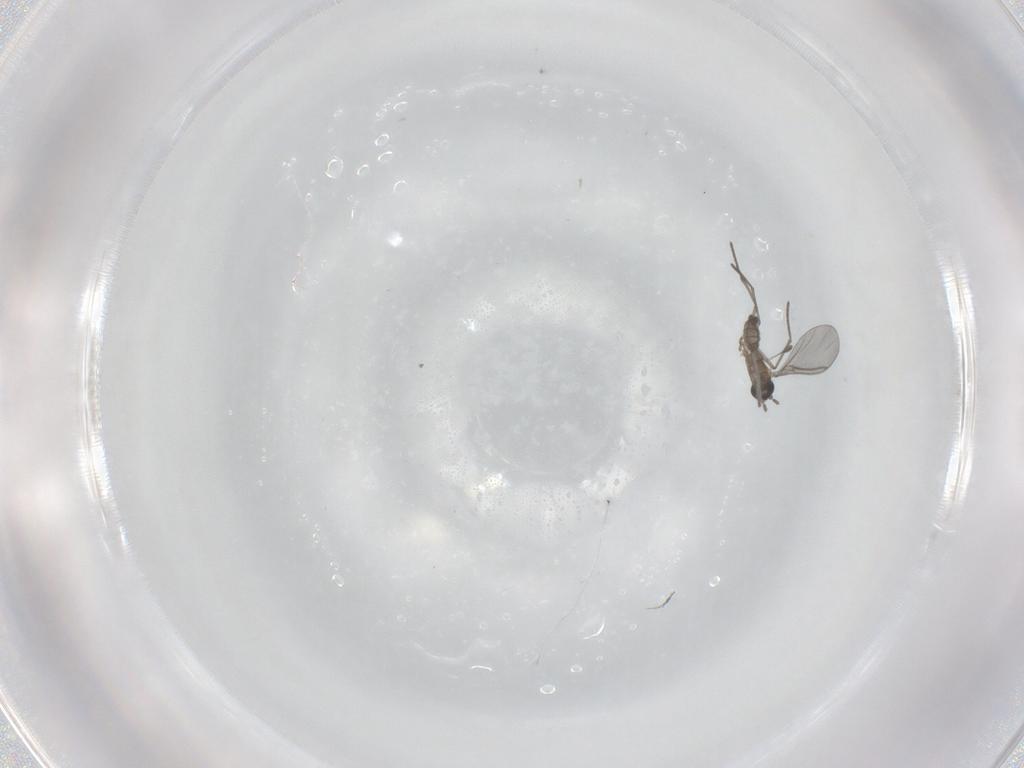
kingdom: Animalia
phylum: Arthropoda
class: Insecta
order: Diptera
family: Sciaridae
